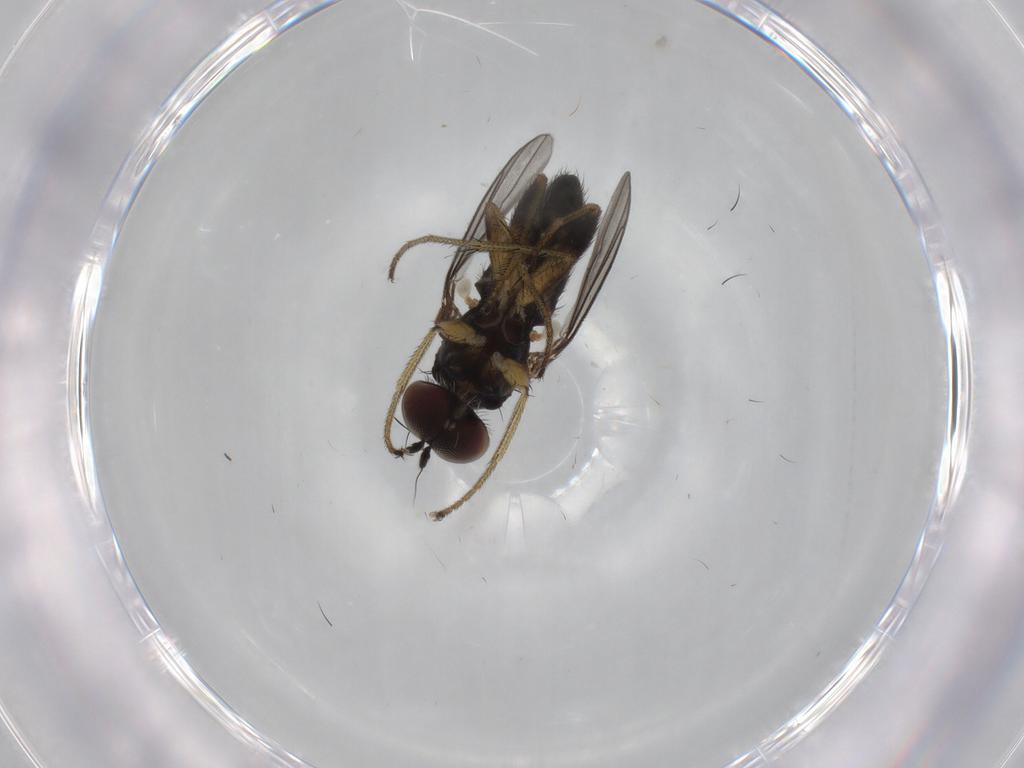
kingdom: Animalia
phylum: Arthropoda
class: Insecta
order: Diptera
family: Dolichopodidae
